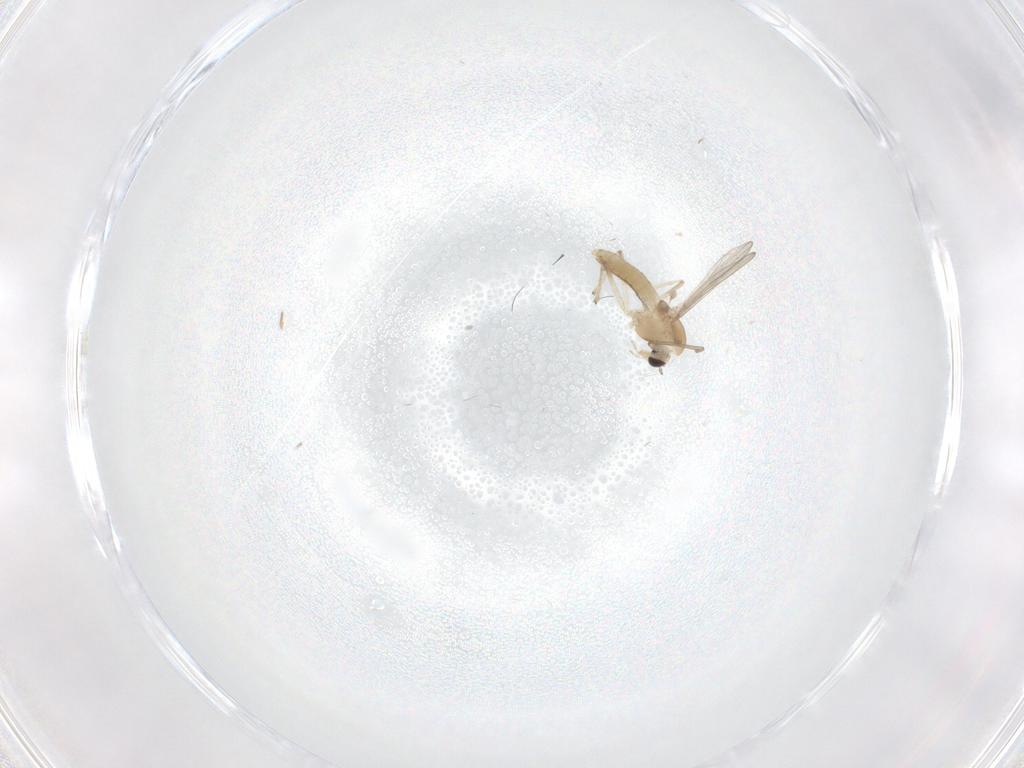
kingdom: Animalia
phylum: Arthropoda
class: Insecta
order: Diptera
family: Chironomidae
